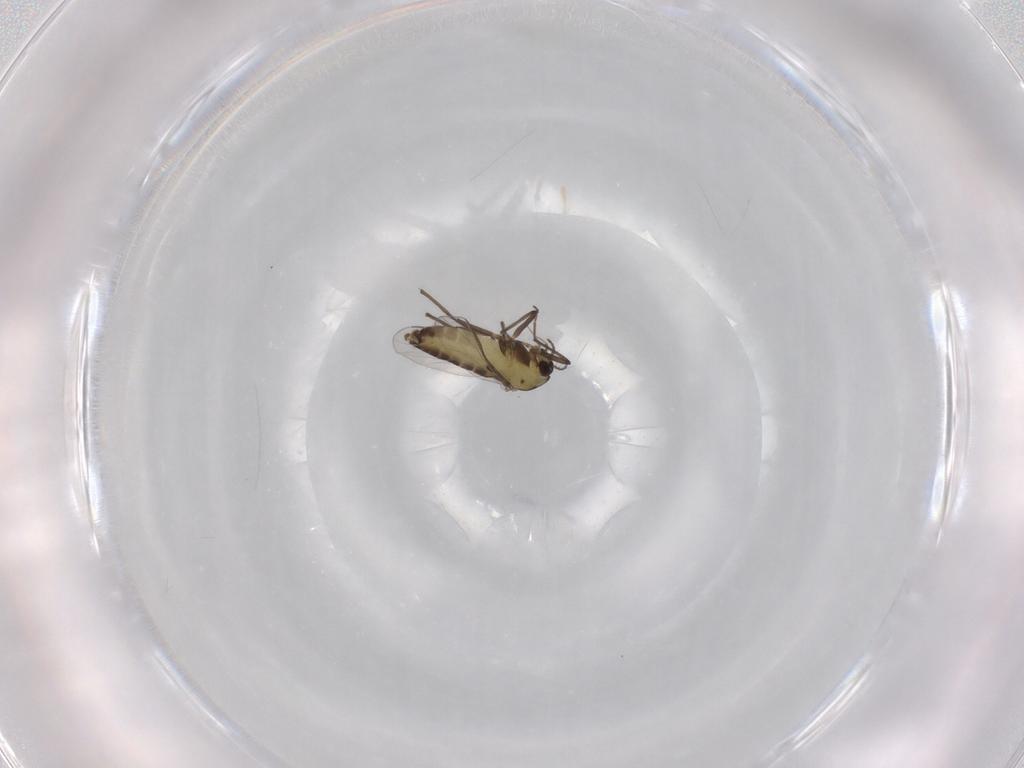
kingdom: Animalia
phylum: Arthropoda
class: Insecta
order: Diptera
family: Chironomidae
